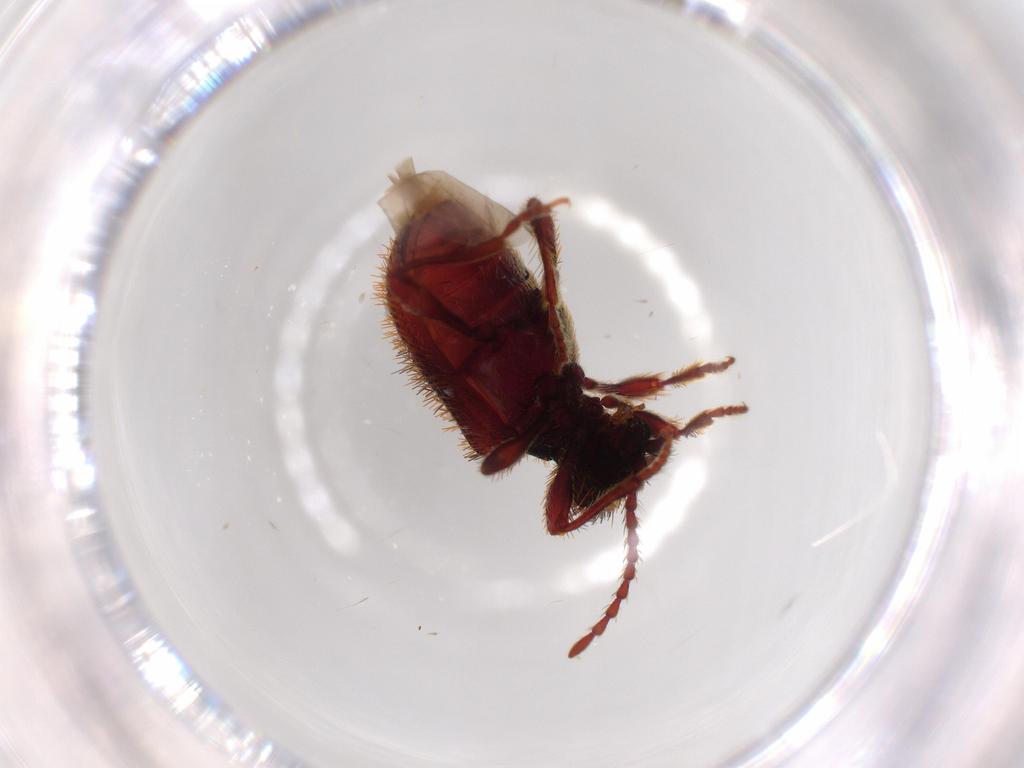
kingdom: Animalia
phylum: Arthropoda
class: Insecta
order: Coleoptera
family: Ptinidae
